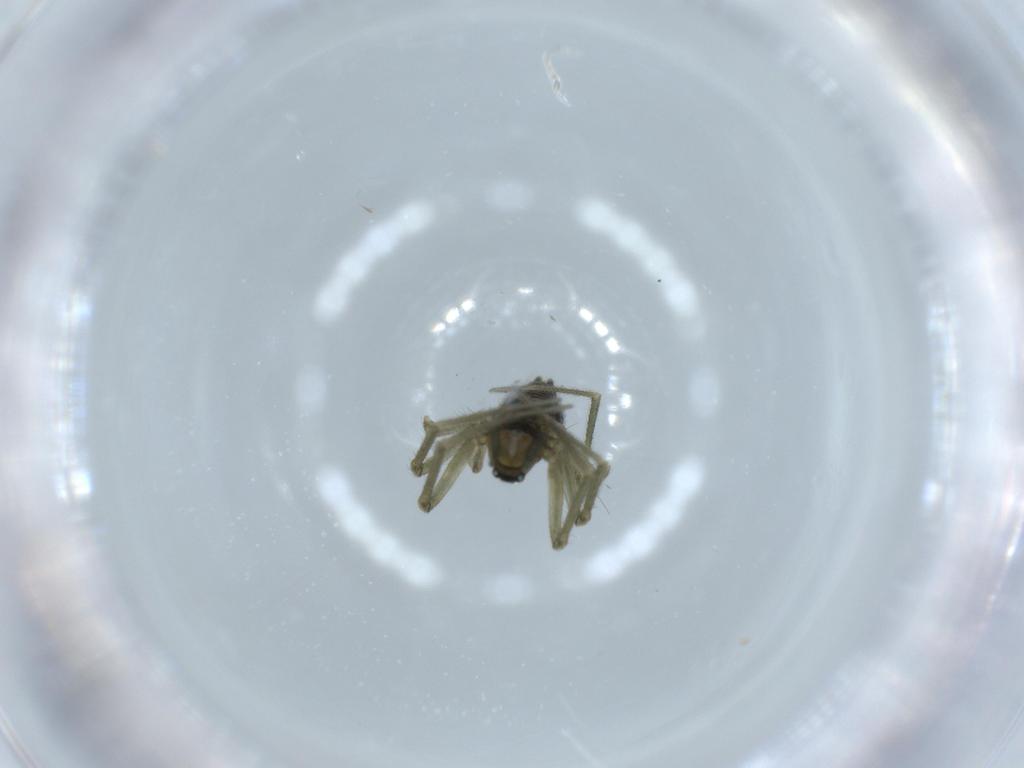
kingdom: Animalia
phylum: Arthropoda
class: Arachnida
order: Araneae
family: Linyphiidae
